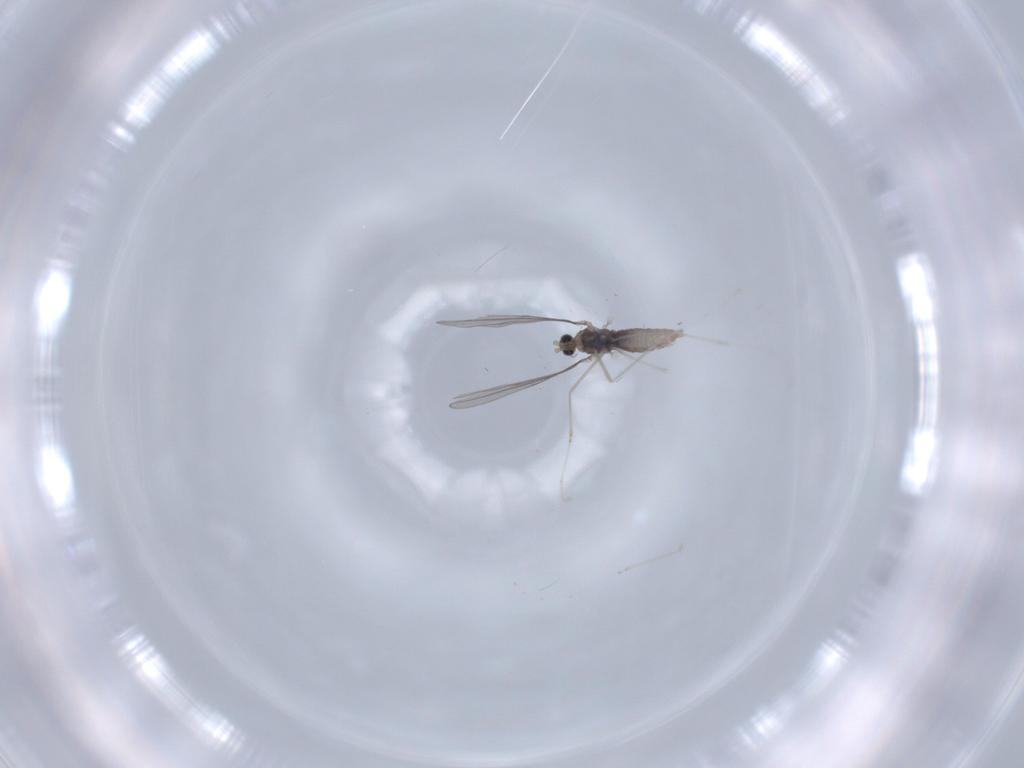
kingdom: Animalia
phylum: Arthropoda
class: Insecta
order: Diptera
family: Cecidomyiidae
